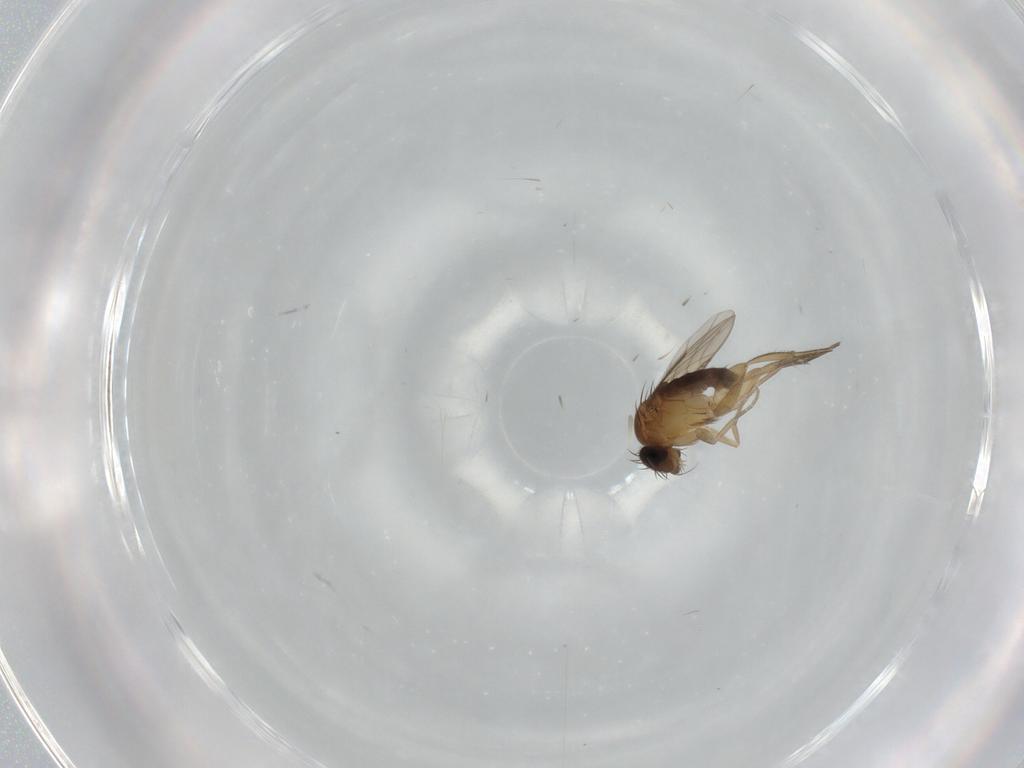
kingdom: Animalia
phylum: Arthropoda
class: Insecta
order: Diptera
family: Phoridae
